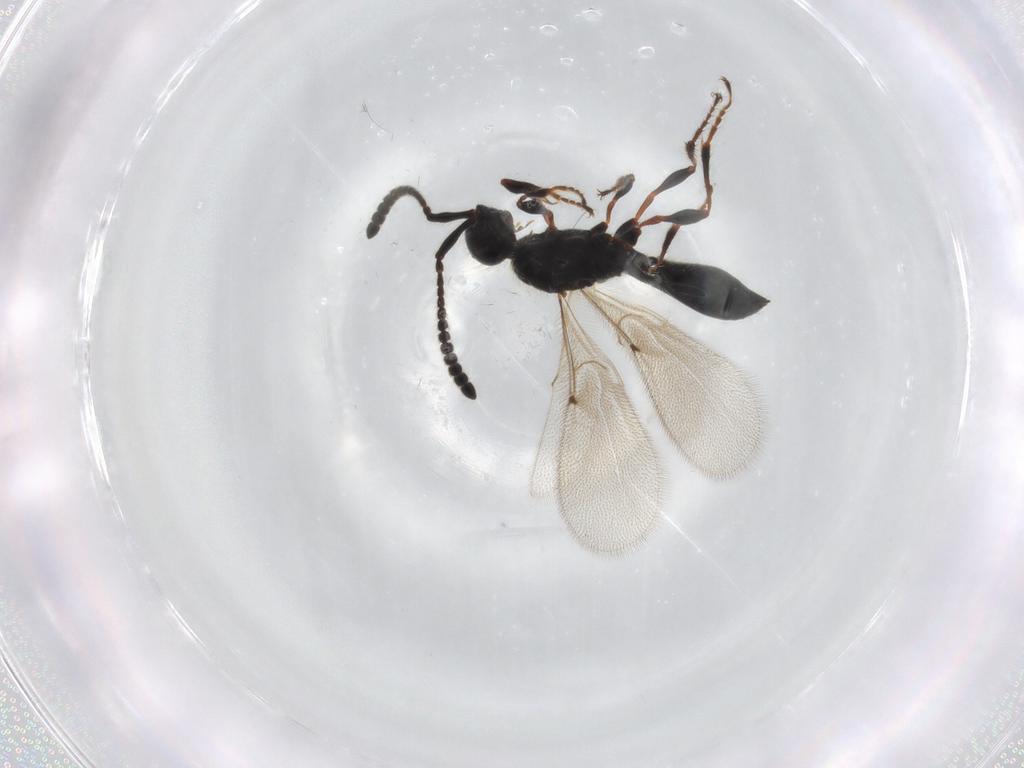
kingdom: Animalia
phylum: Arthropoda
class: Insecta
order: Hymenoptera
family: Diapriidae
